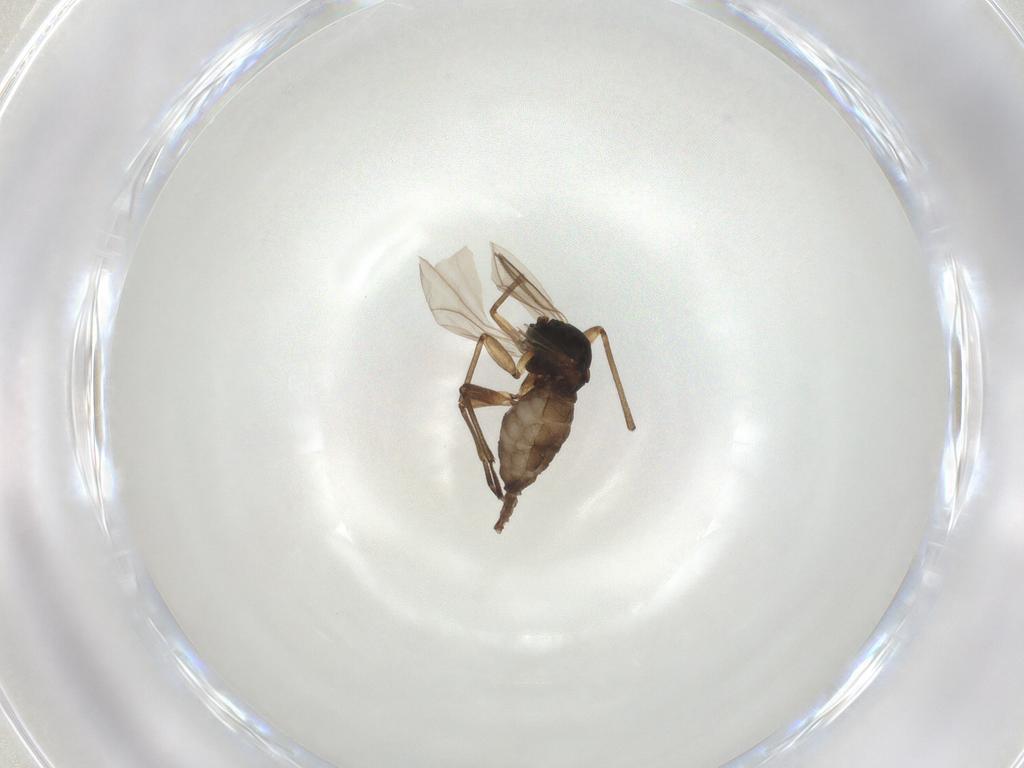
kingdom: Animalia
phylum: Arthropoda
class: Insecta
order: Diptera
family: Sciaridae
